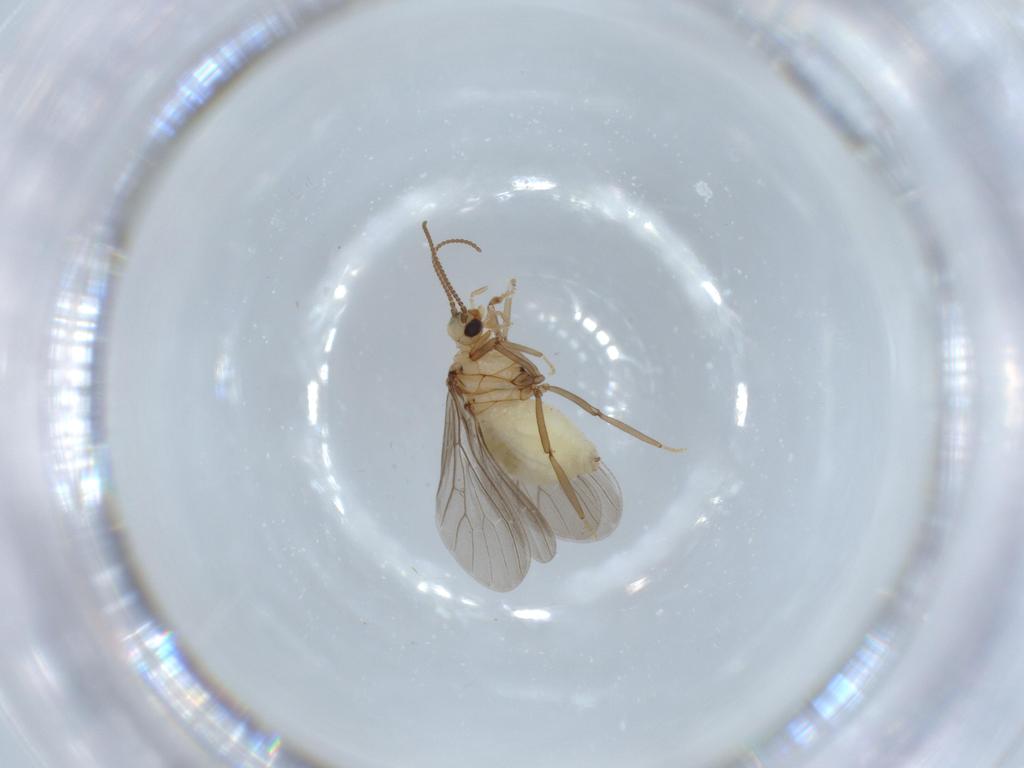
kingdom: Animalia
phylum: Arthropoda
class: Insecta
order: Neuroptera
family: Coniopterygidae
